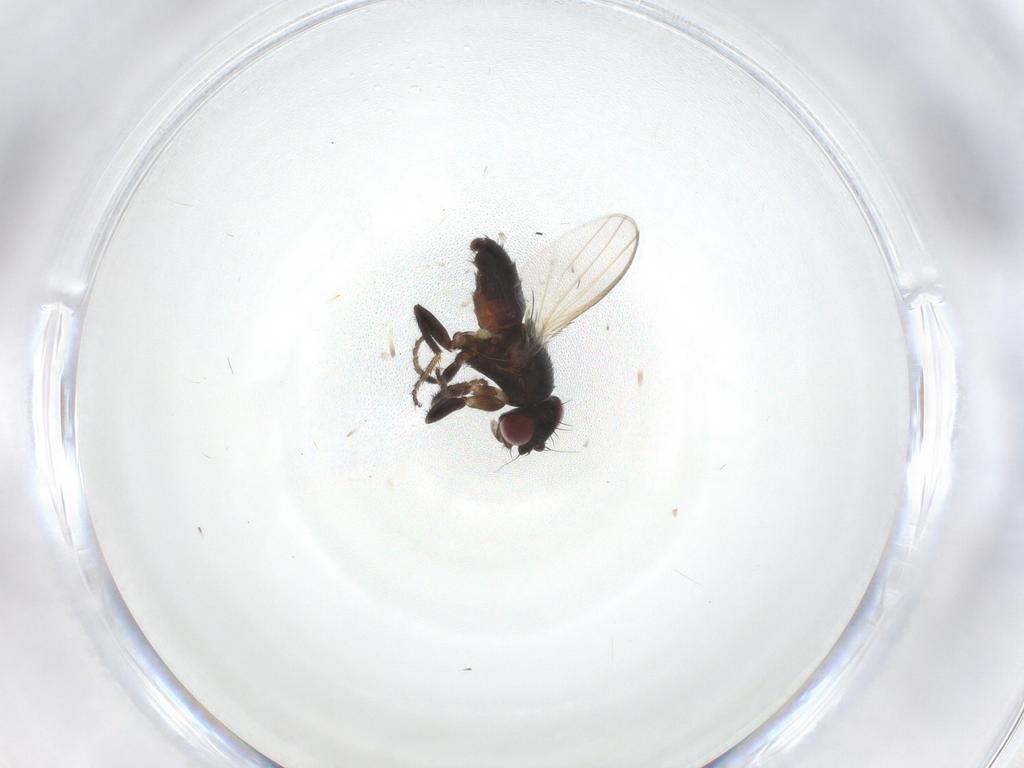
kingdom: Animalia
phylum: Arthropoda
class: Insecta
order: Diptera
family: Milichiidae
